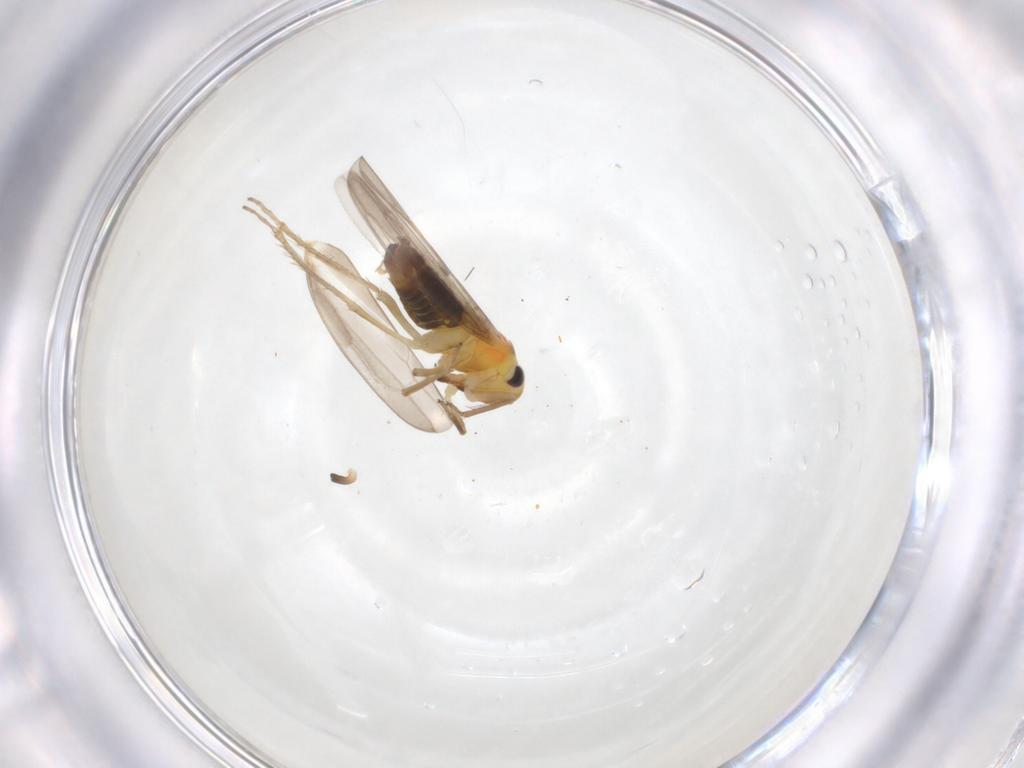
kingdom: Animalia
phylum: Arthropoda
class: Insecta
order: Hemiptera
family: Cicadellidae
